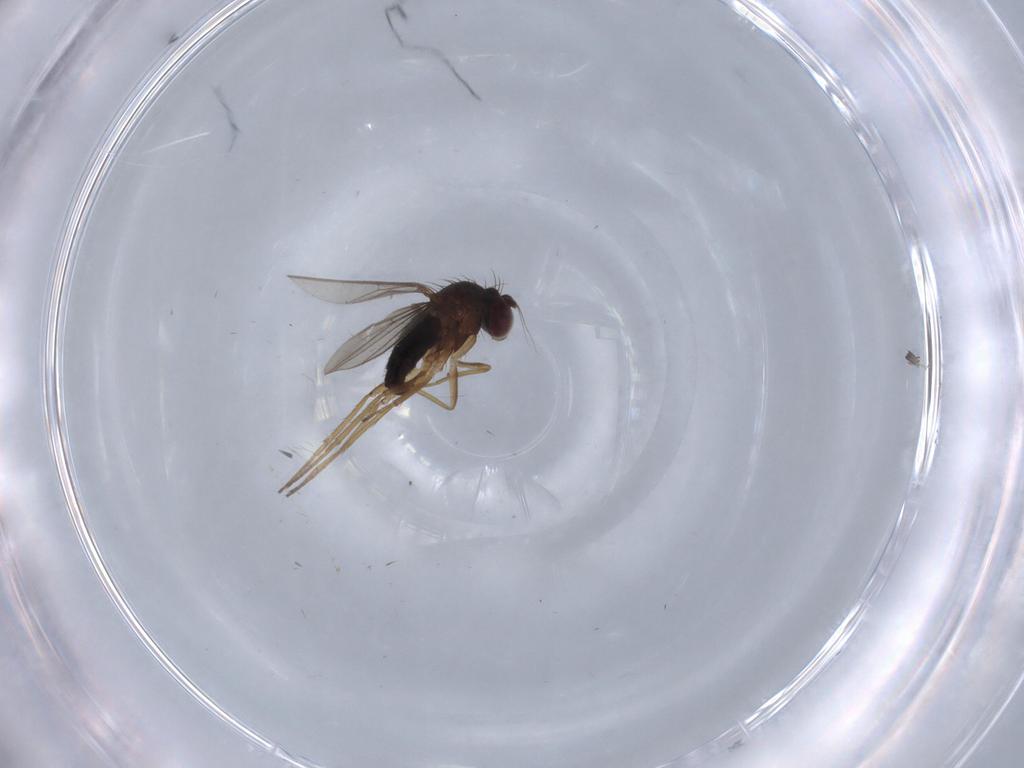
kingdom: Animalia
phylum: Arthropoda
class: Insecta
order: Diptera
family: Dolichopodidae
